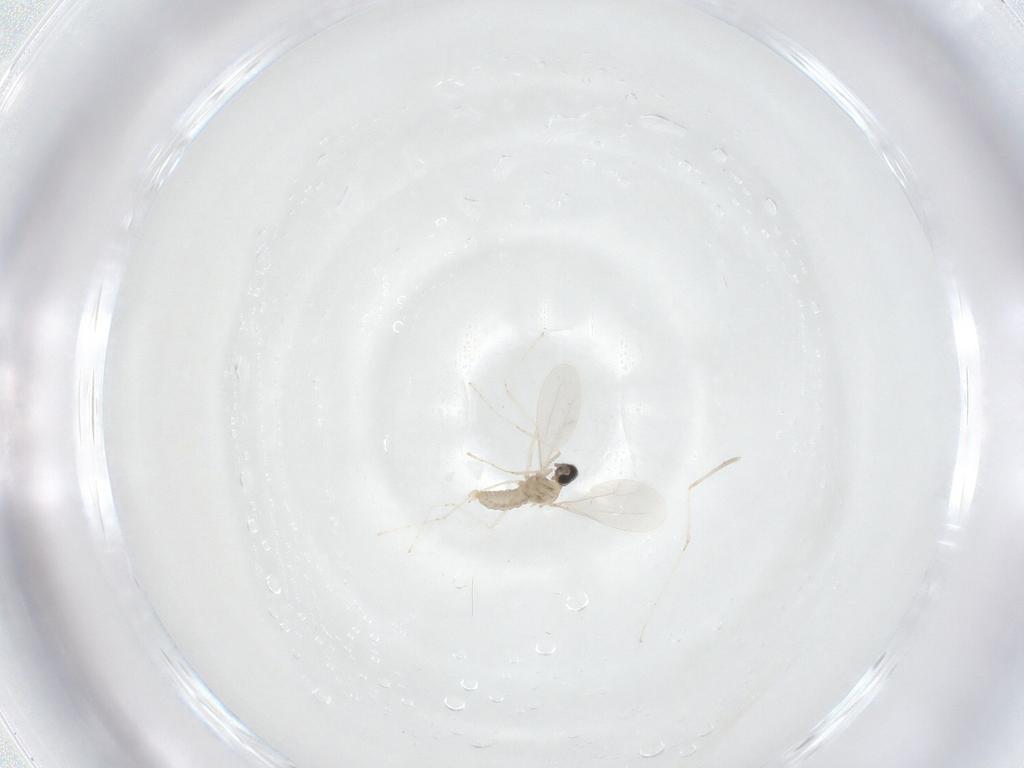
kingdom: Animalia
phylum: Arthropoda
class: Insecta
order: Diptera
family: Cecidomyiidae
